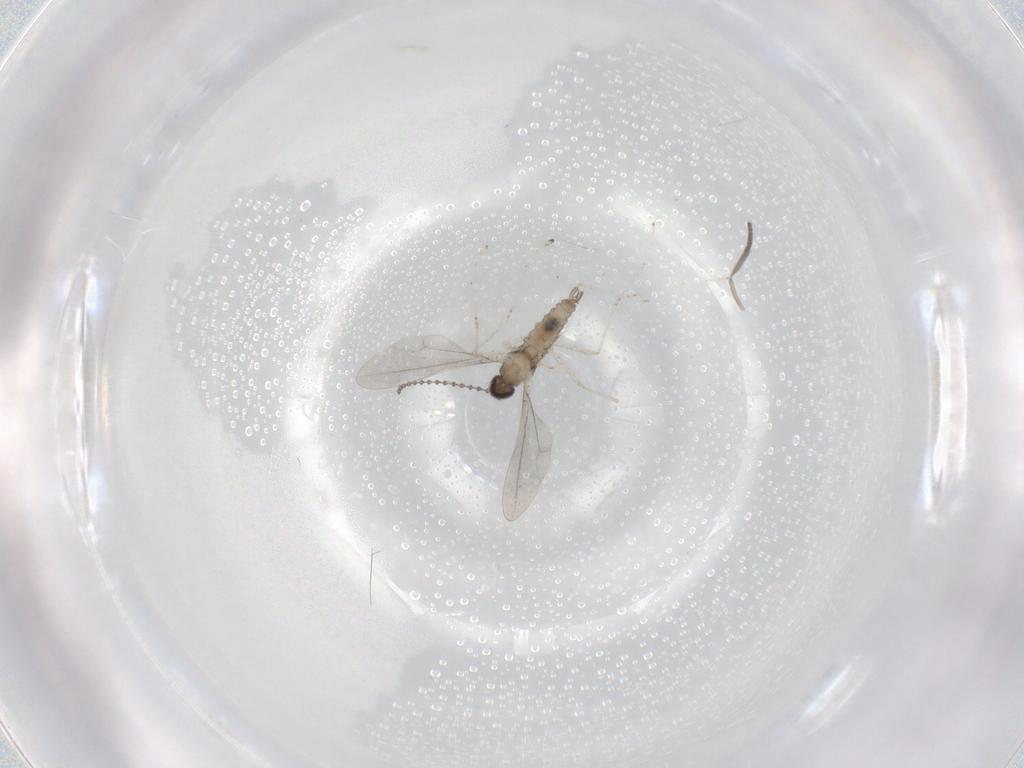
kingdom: Animalia
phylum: Arthropoda
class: Insecta
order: Diptera
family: Cecidomyiidae
